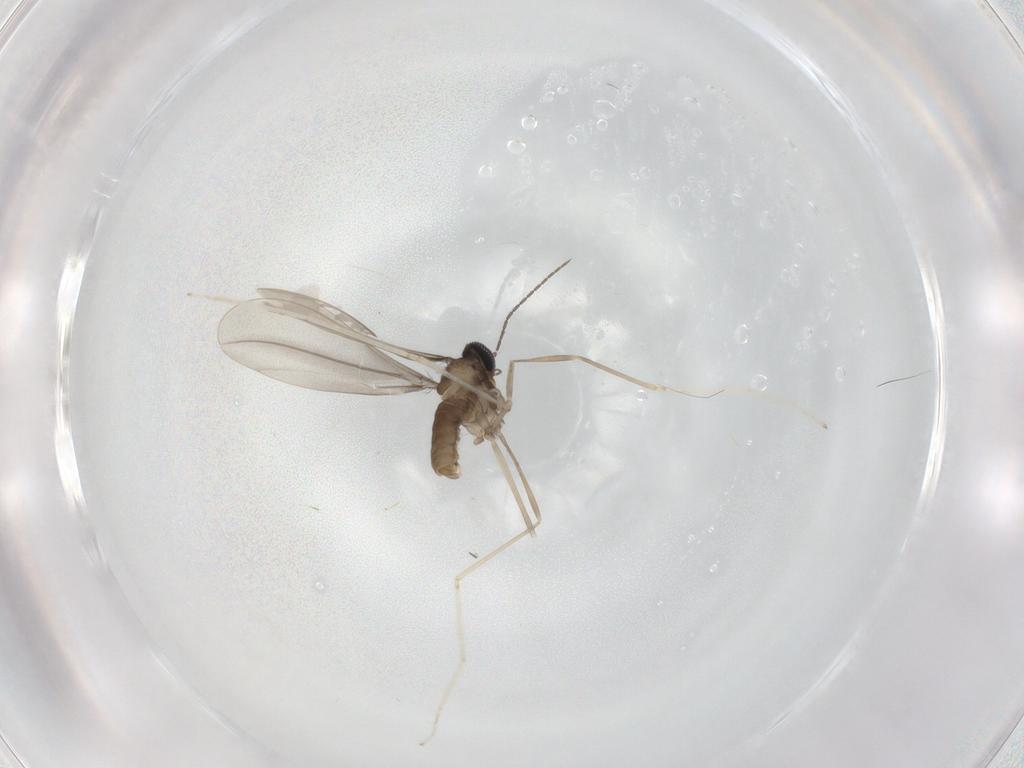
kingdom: Animalia
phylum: Arthropoda
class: Insecta
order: Diptera
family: Cecidomyiidae
